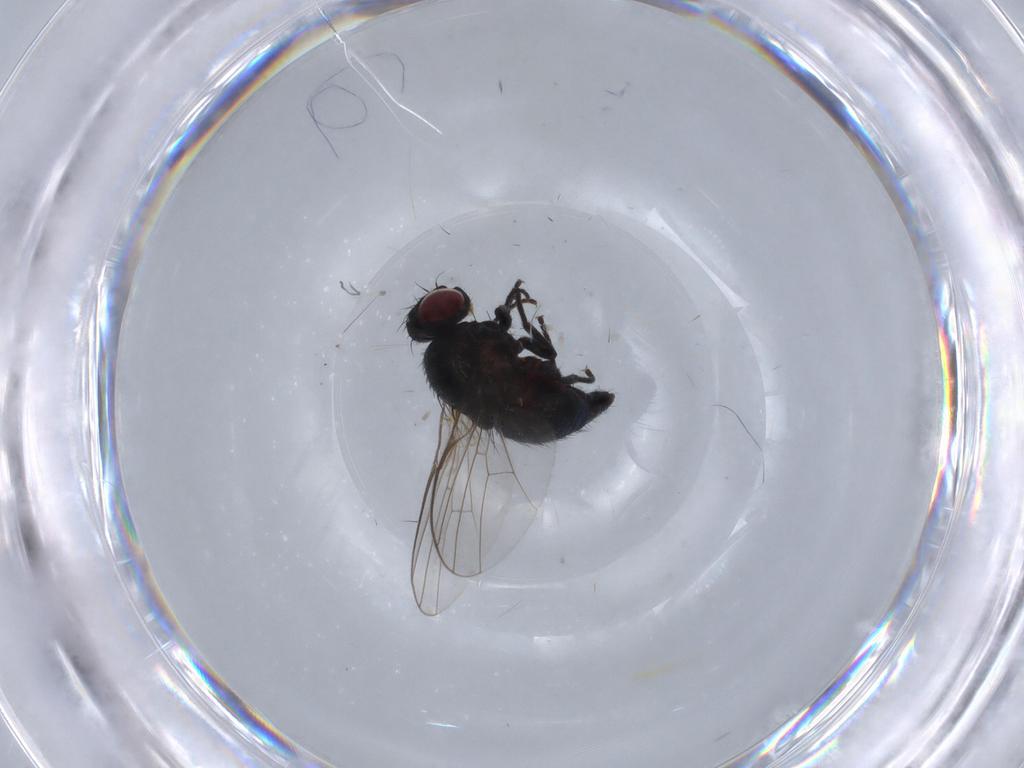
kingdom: Animalia
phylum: Arthropoda
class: Insecta
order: Diptera
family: Agromyzidae
